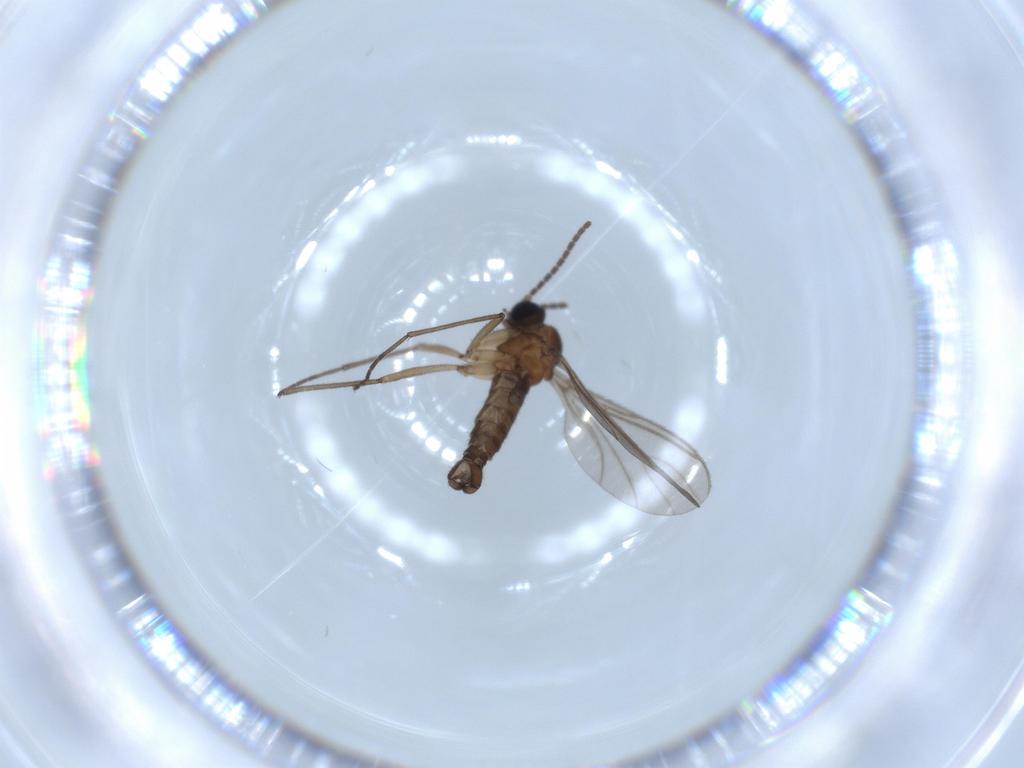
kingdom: Animalia
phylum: Arthropoda
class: Insecta
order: Diptera
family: Sciaridae
